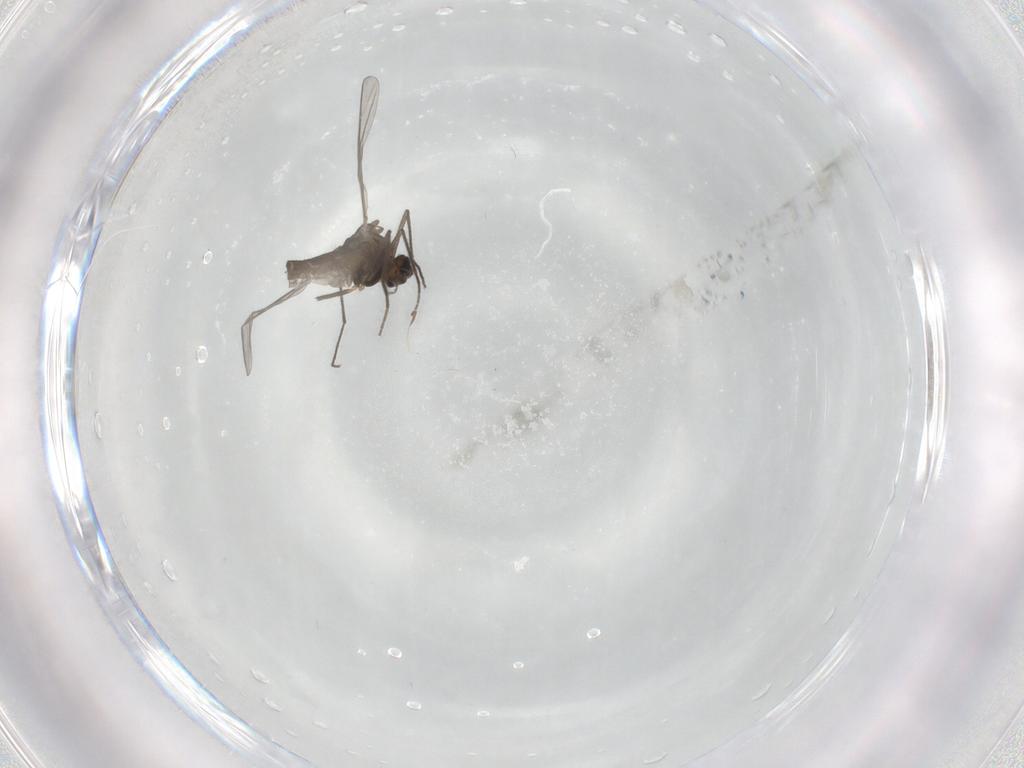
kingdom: Animalia
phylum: Arthropoda
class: Insecta
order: Diptera
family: Chironomidae
